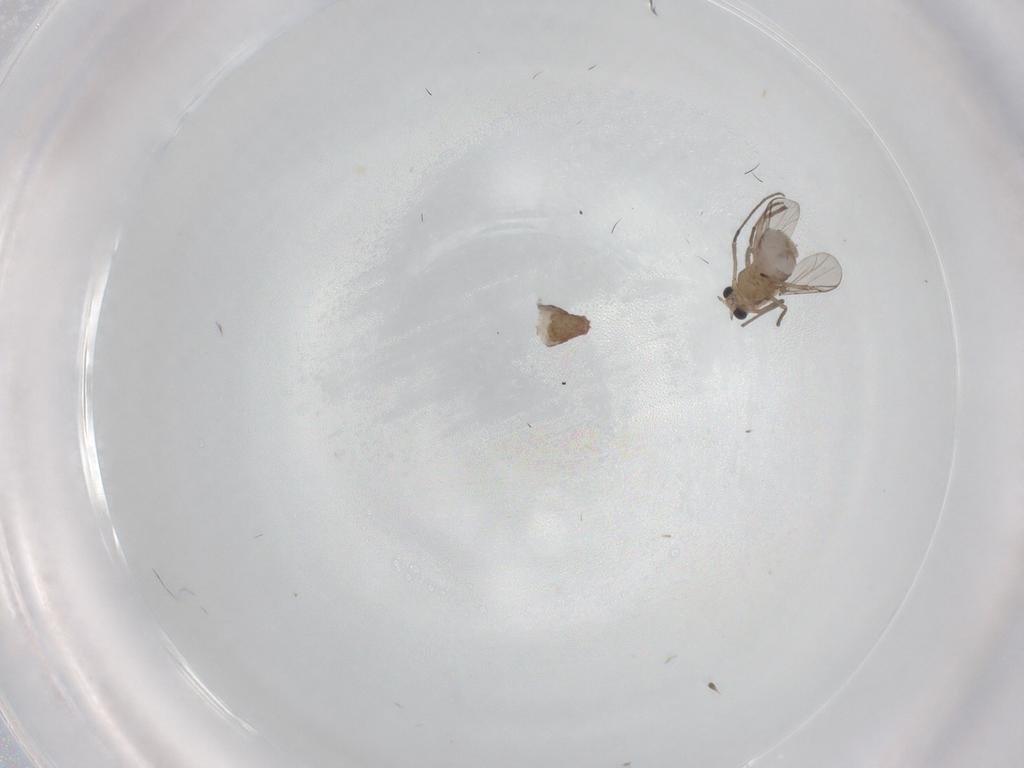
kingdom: Animalia
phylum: Arthropoda
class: Insecta
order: Diptera
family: Chironomidae
